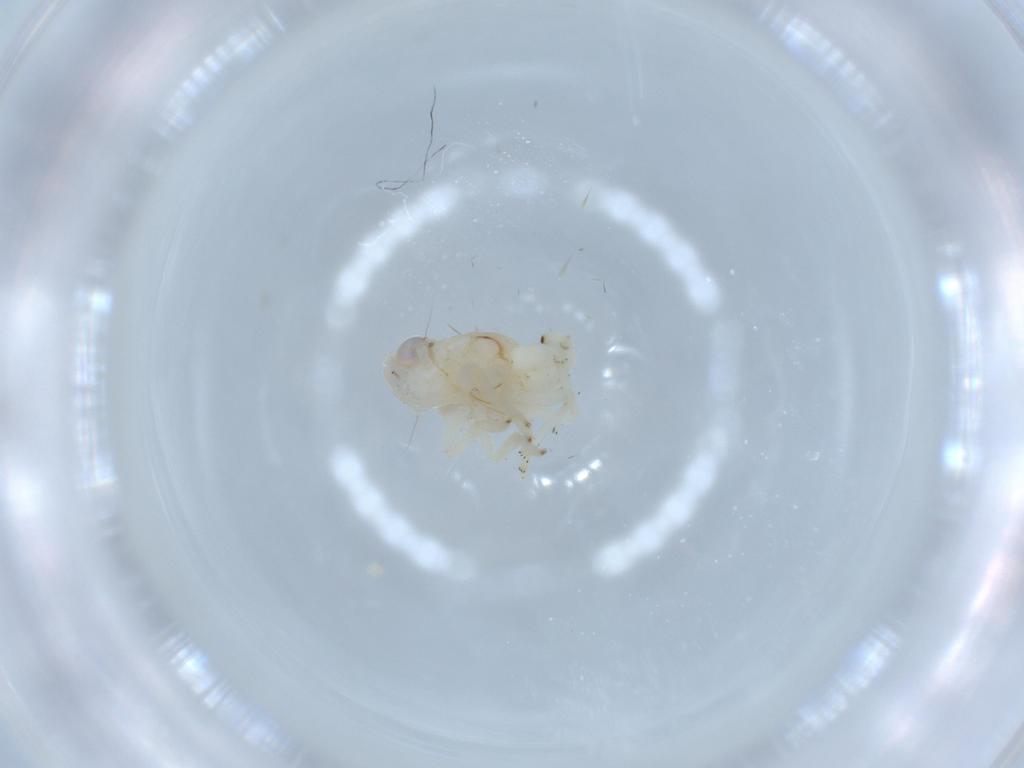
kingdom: Animalia
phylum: Arthropoda
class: Insecta
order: Hemiptera
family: Nogodinidae
